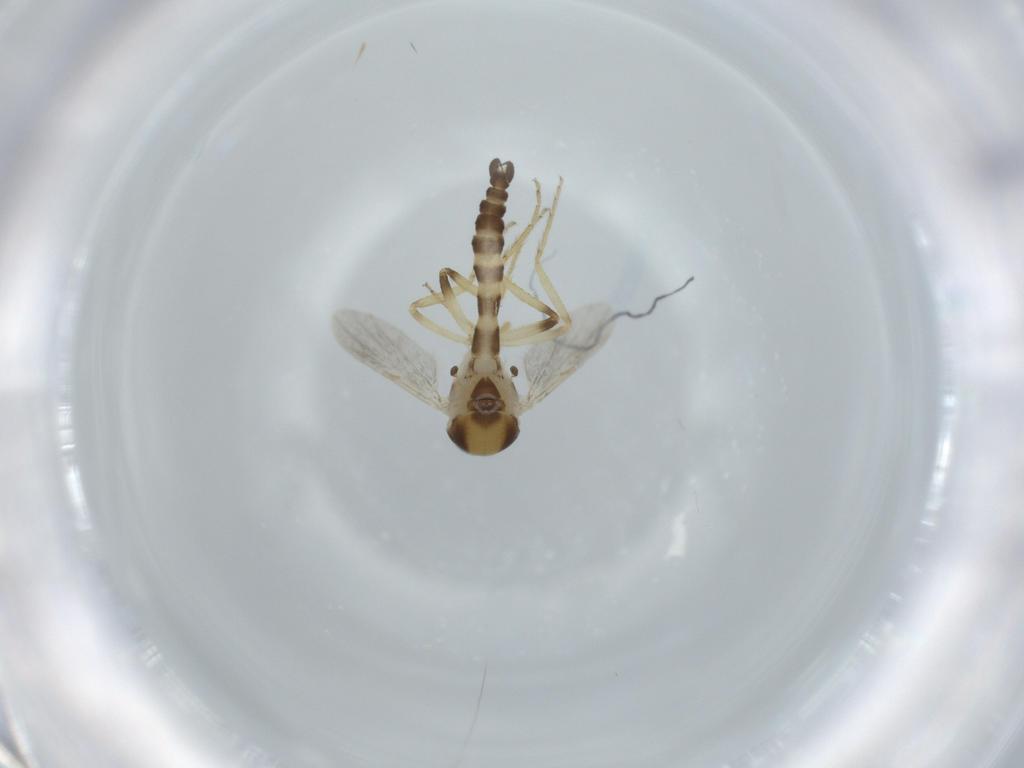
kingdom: Animalia
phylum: Arthropoda
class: Insecta
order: Diptera
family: Ceratopogonidae
